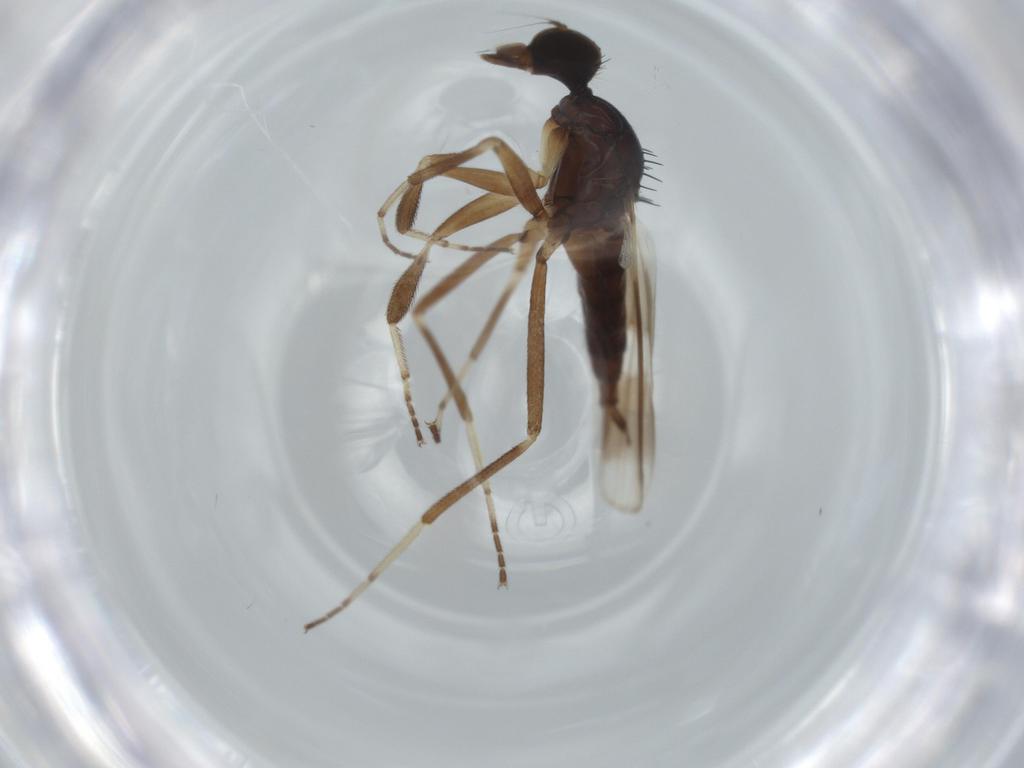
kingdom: Animalia
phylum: Arthropoda
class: Insecta
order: Diptera
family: Hybotidae
